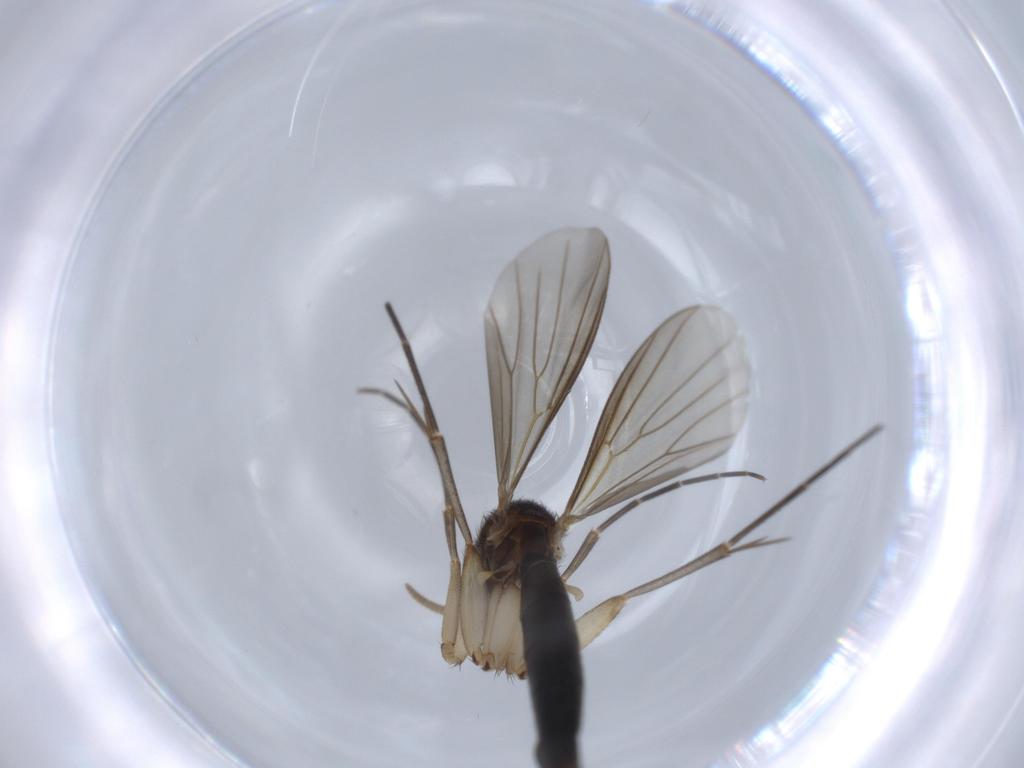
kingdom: Animalia
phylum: Arthropoda
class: Insecta
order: Diptera
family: Mycetophilidae
